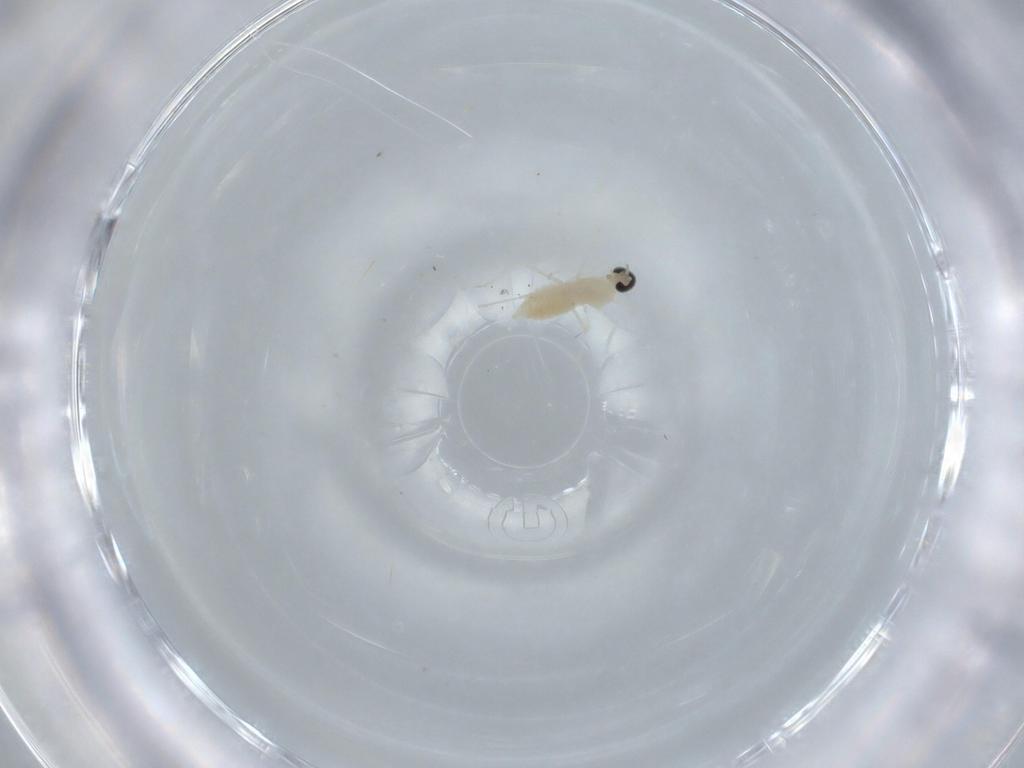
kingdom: Animalia
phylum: Arthropoda
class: Insecta
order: Diptera
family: Cecidomyiidae
